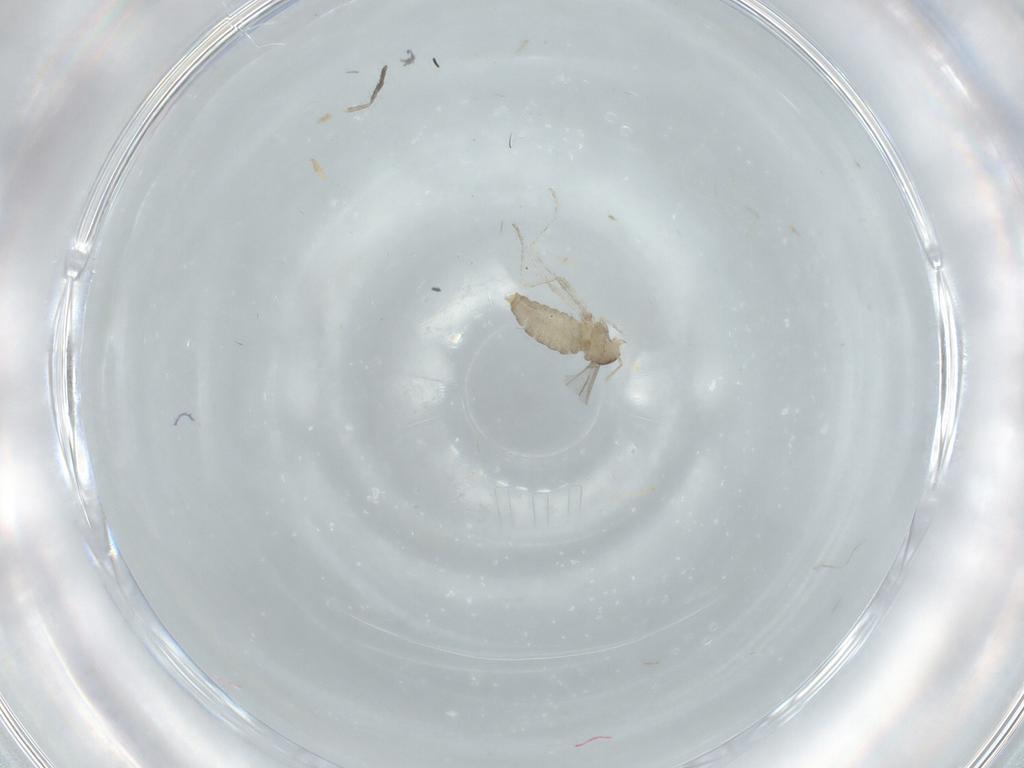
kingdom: Animalia
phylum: Arthropoda
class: Insecta
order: Diptera
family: Cecidomyiidae
